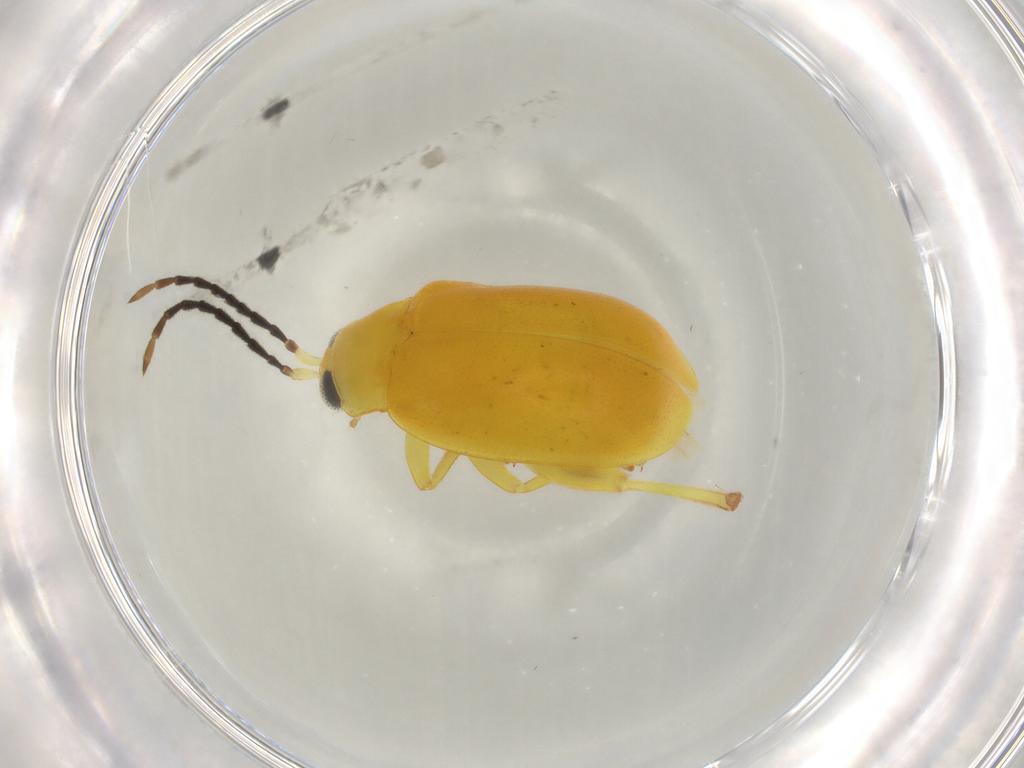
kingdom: Animalia
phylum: Arthropoda
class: Insecta
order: Coleoptera
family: Chrysomelidae
